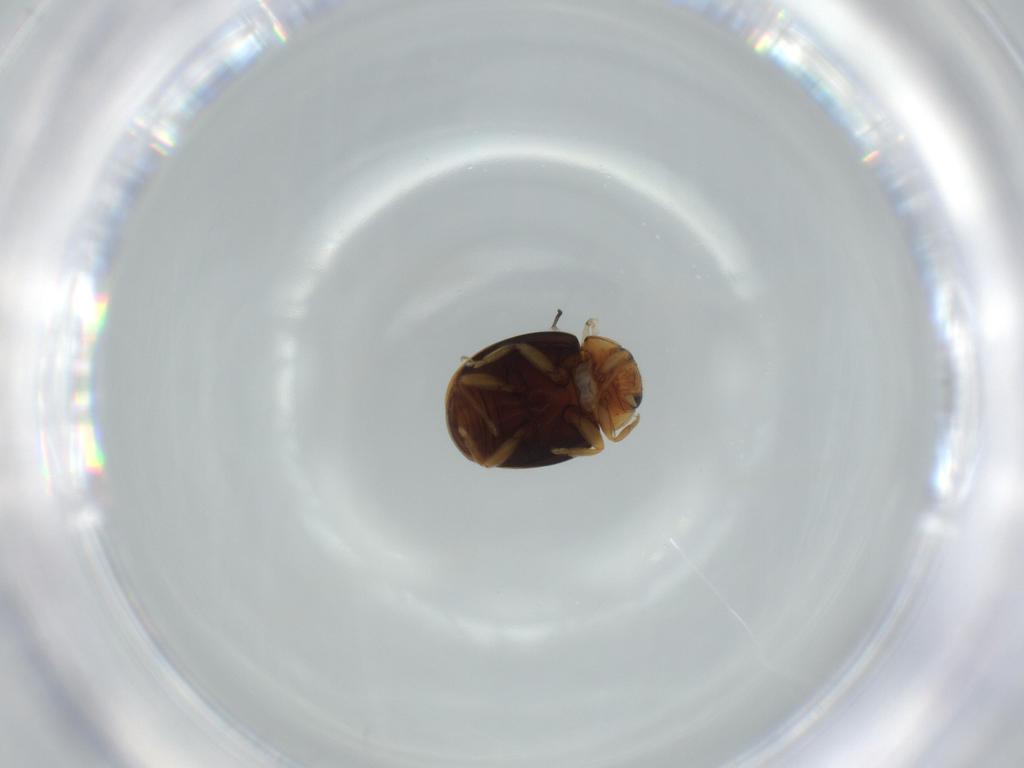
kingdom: Animalia
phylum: Arthropoda
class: Insecta
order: Coleoptera
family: Coccinellidae
